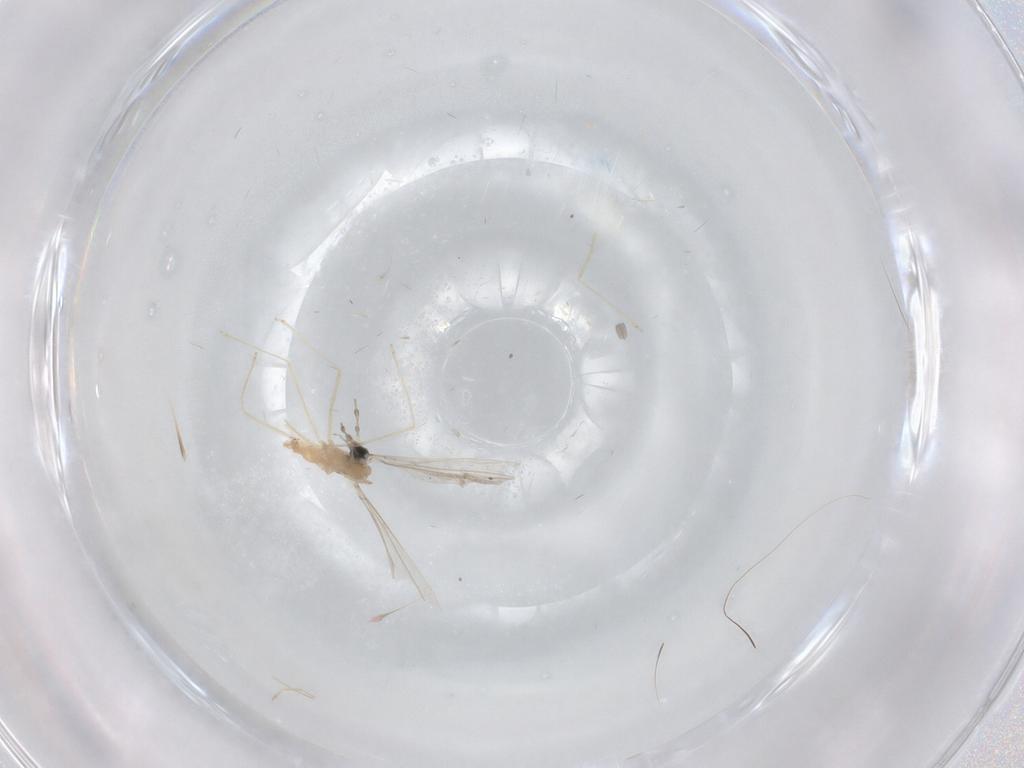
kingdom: Animalia
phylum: Arthropoda
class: Insecta
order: Diptera
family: Cecidomyiidae
